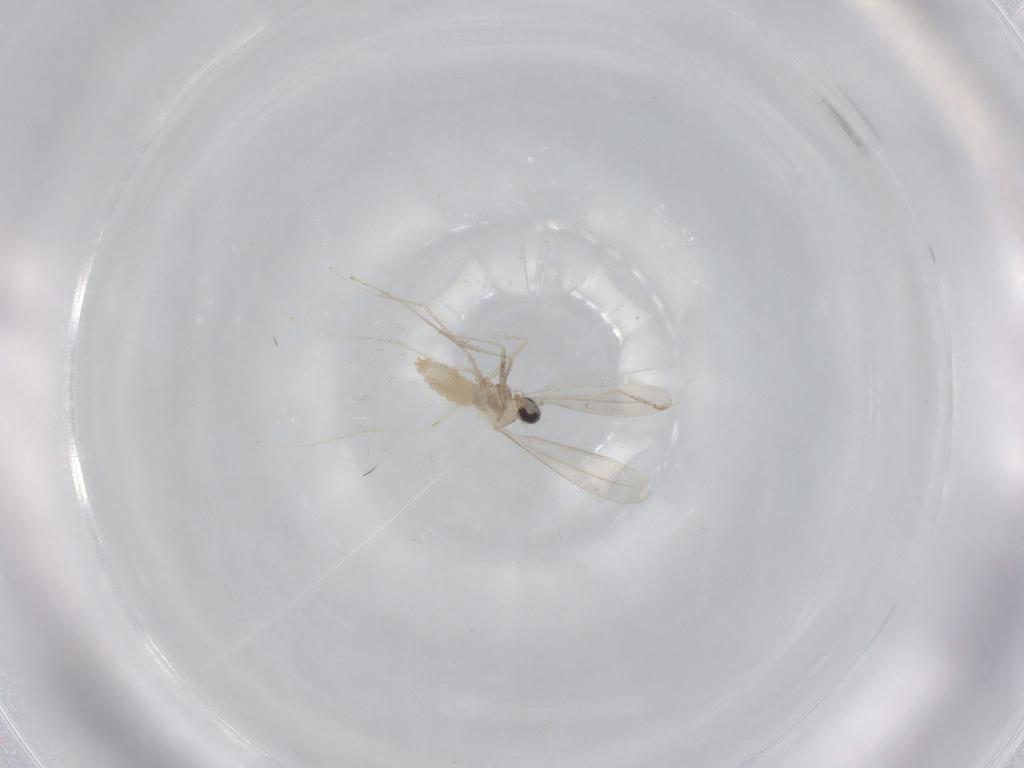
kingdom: Animalia
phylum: Arthropoda
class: Insecta
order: Diptera
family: Cecidomyiidae
